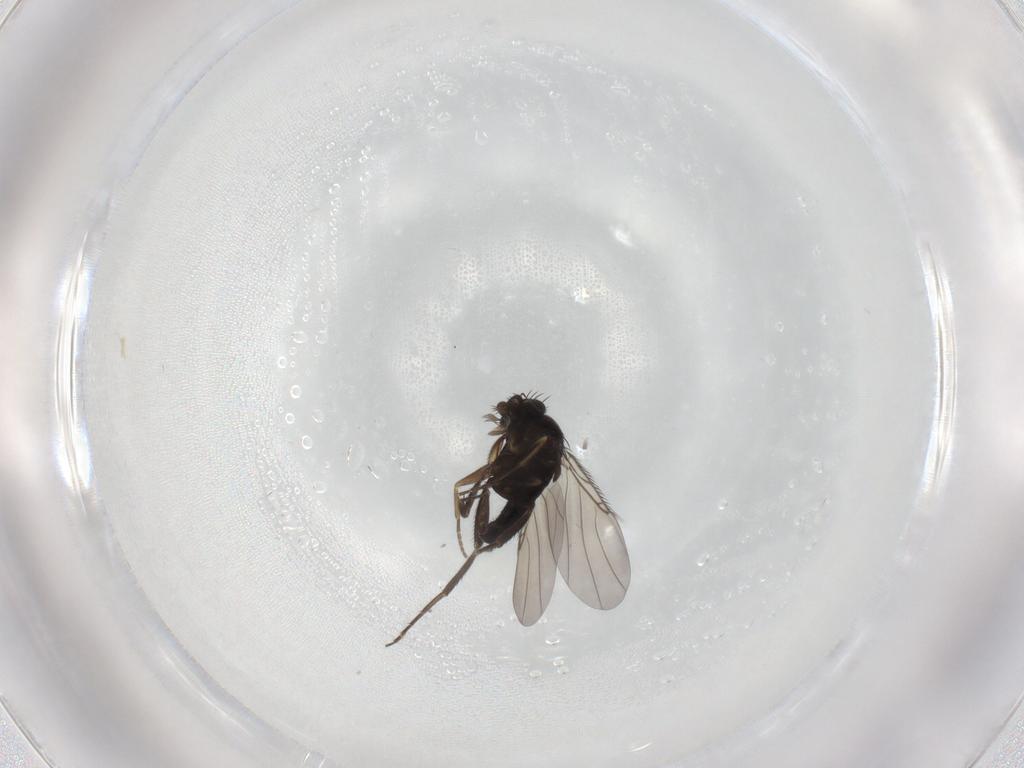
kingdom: Animalia
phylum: Arthropoda
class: Insecta
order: Diptera
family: Phoridae
